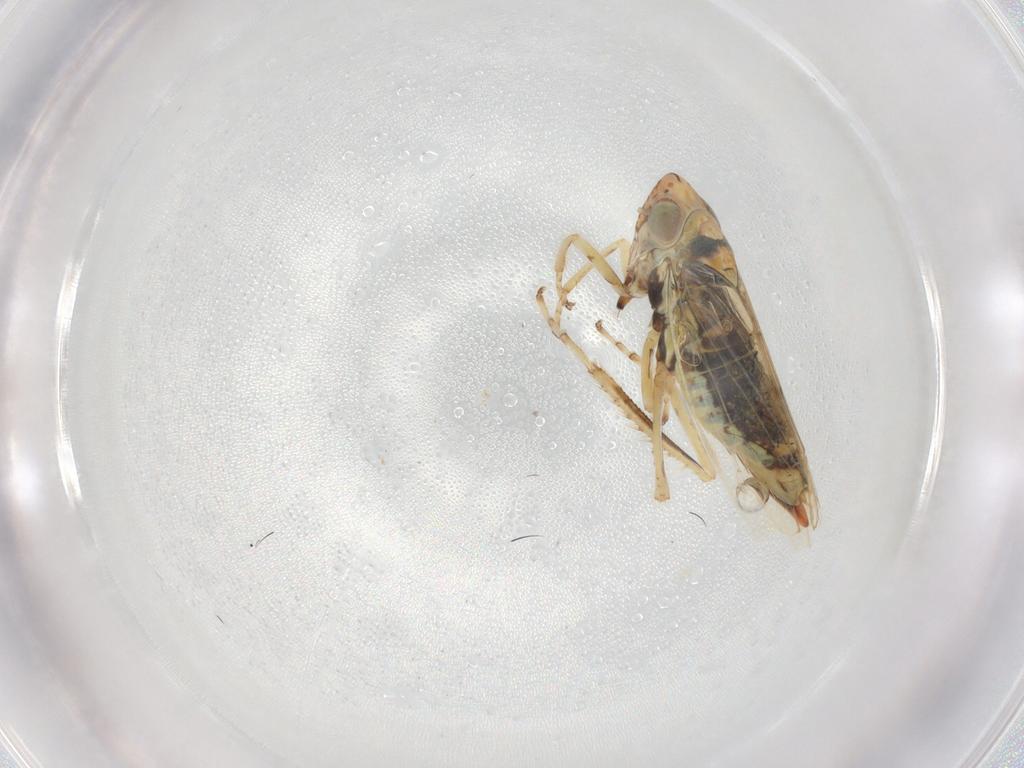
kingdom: Animalia
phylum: Arthropoda
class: Insecta
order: Hemiptera
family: Cicadellidae
